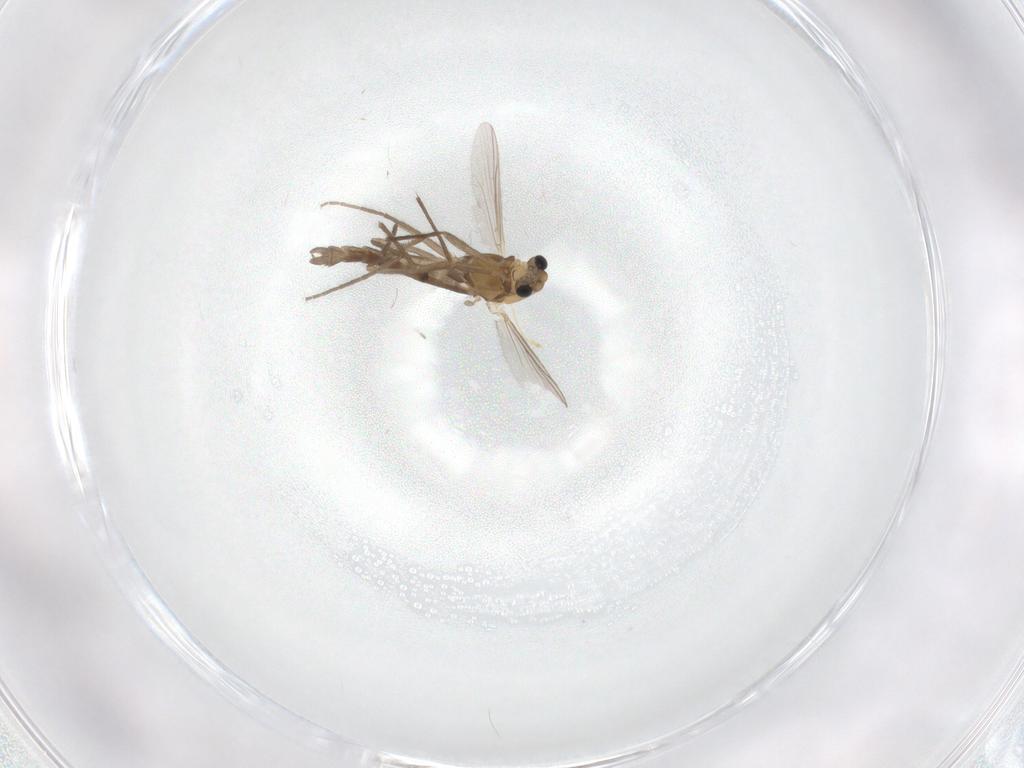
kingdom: Animalia
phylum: Arthropoda
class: Insecta
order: Diptera
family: Chironomidae
